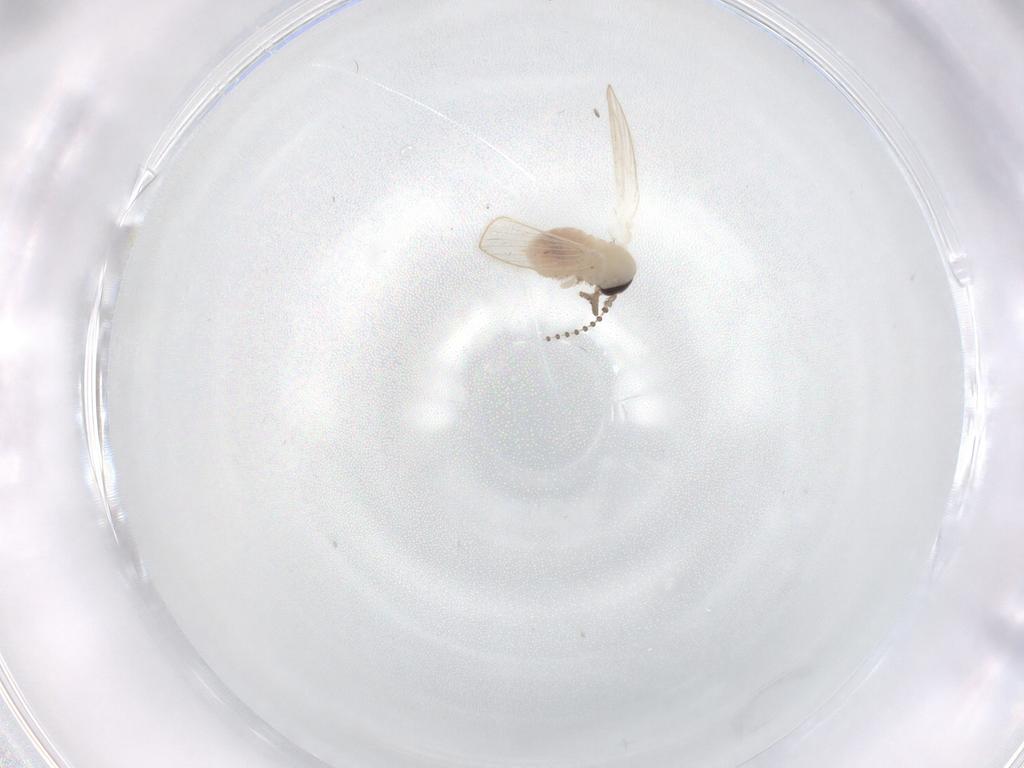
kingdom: Animalia
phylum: Arthropoda
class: Insecta
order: Diptera
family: Psychodidae
